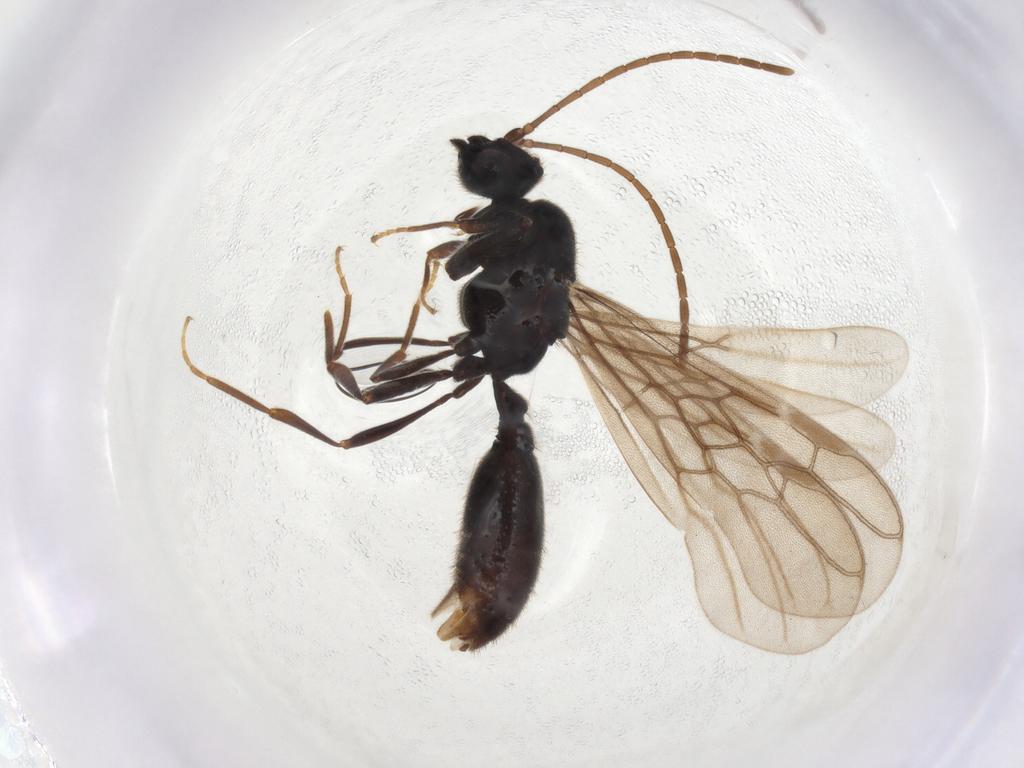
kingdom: Animalia
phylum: Arthropoda
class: Insecta
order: Hymenoptera
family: Formicidae
